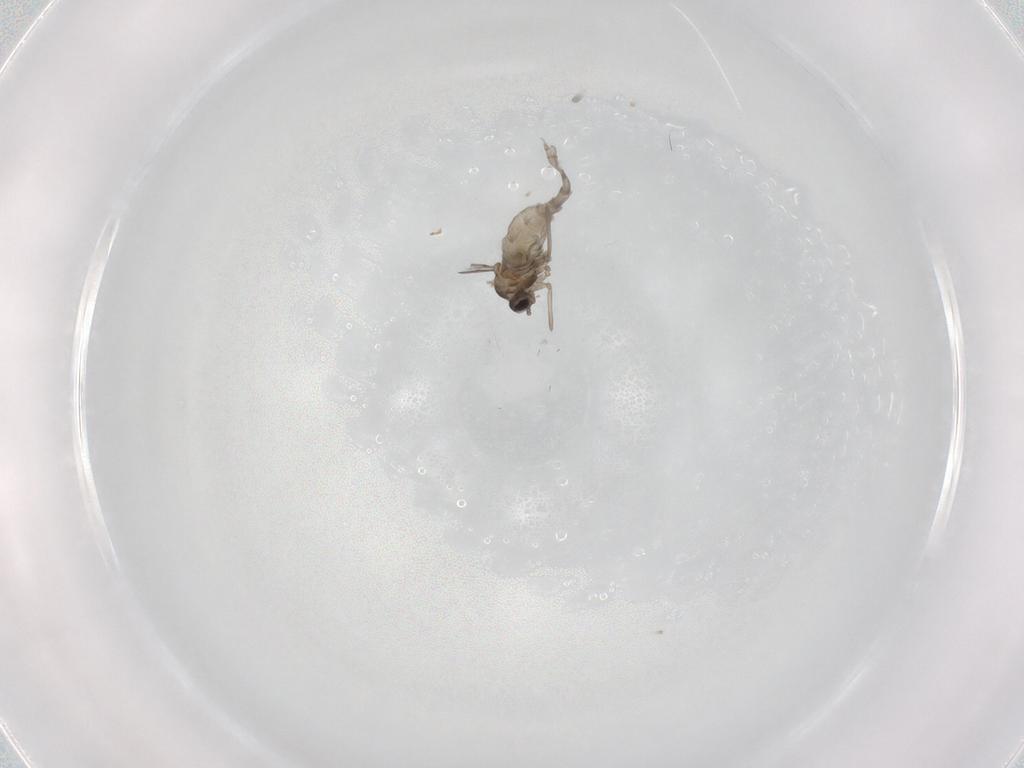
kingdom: Animalia
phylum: Arthropoda
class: Insecta
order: Diptera
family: Cecidomyiidae
